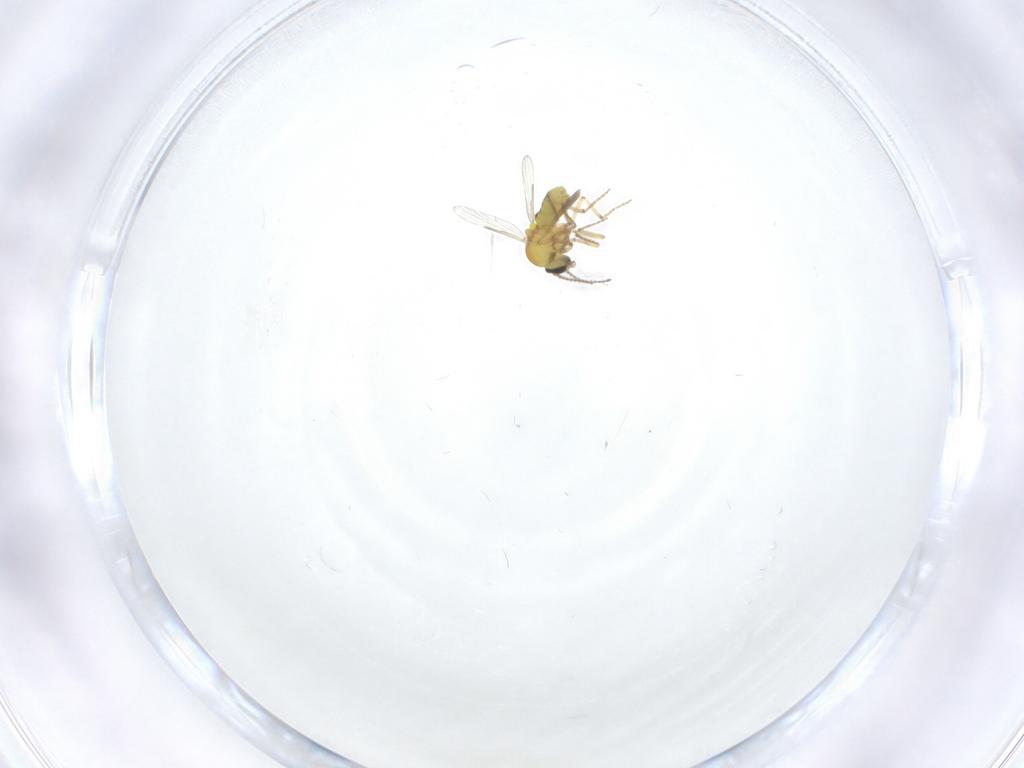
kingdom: Animalia
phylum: Arthropoda
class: Insecta
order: Diptera
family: Ceratopogonidae
